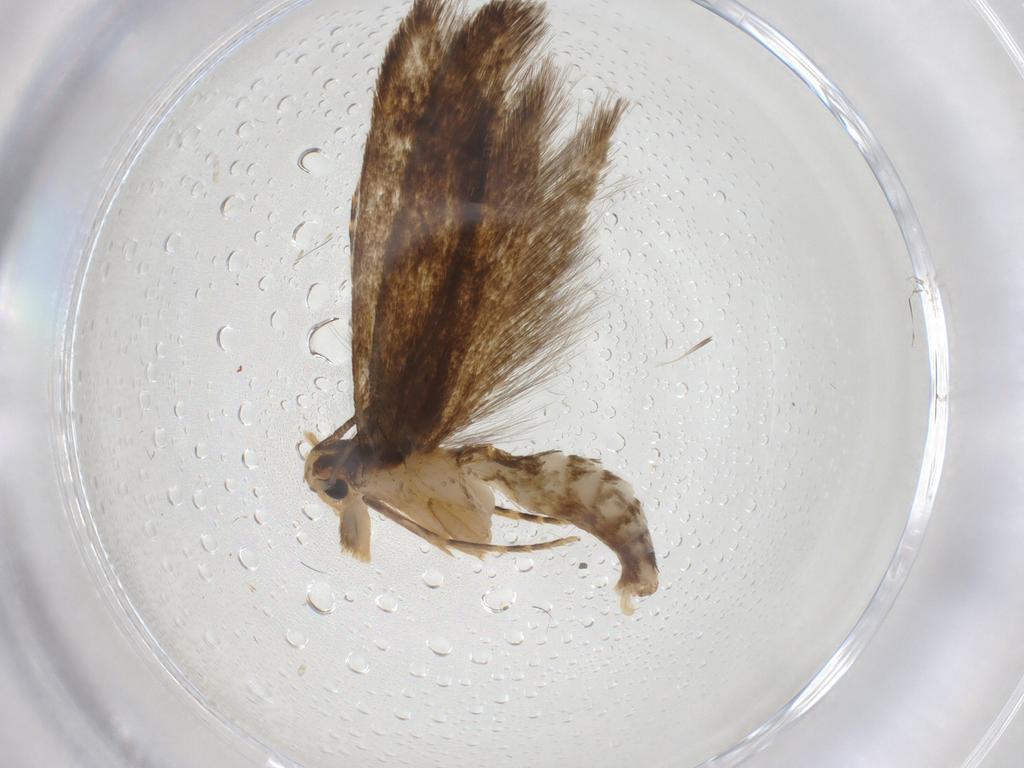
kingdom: Animalia
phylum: Arthropoda
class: Insecta
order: Lepidoptera
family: Tineidae
